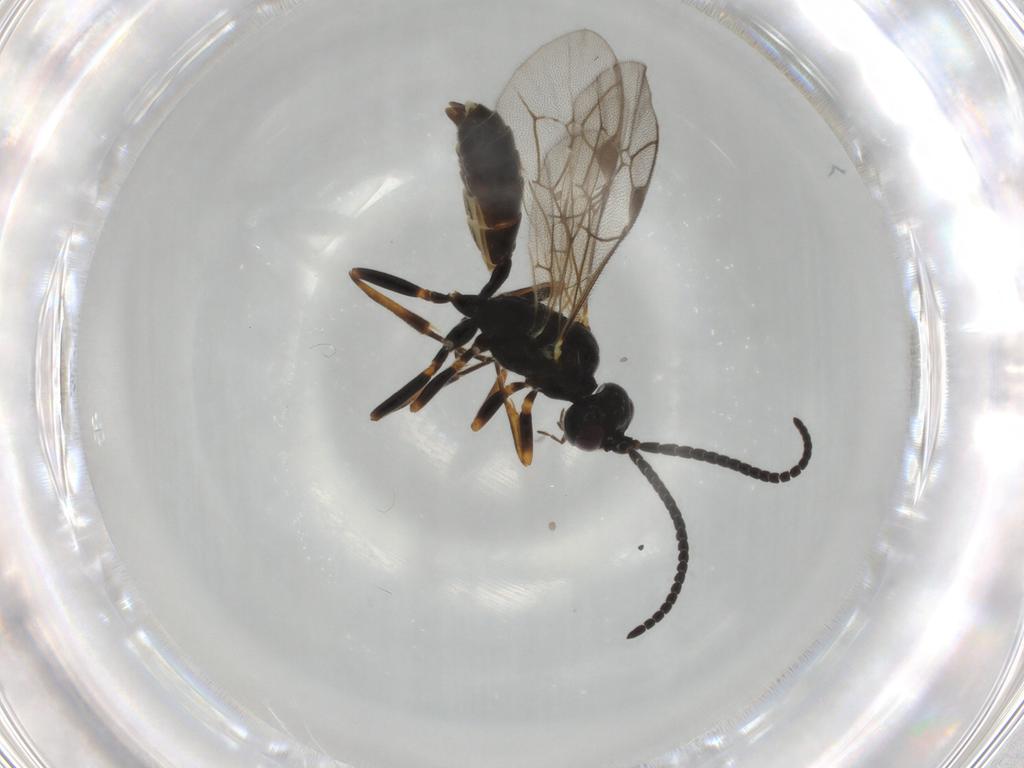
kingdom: Animalia
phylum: Arthropoda
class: Insecta
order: Hymenoptera
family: Ichneumonidae
